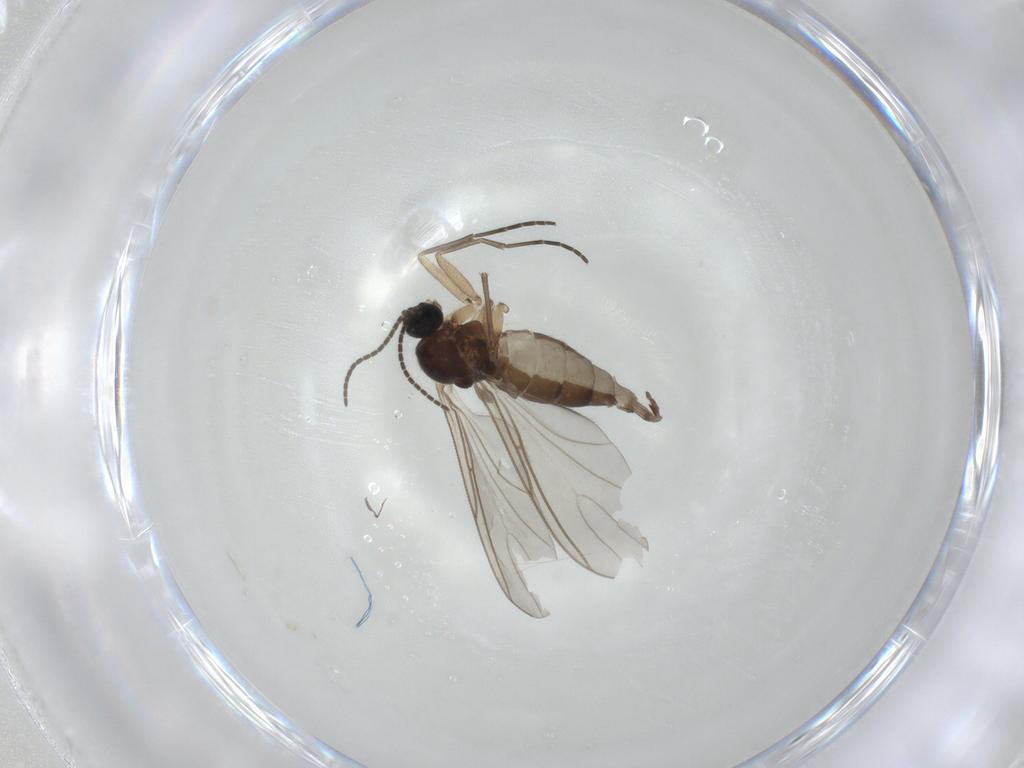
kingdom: Animalia
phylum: Arthropoda
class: Insecta
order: Diptera
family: Sciaridae
